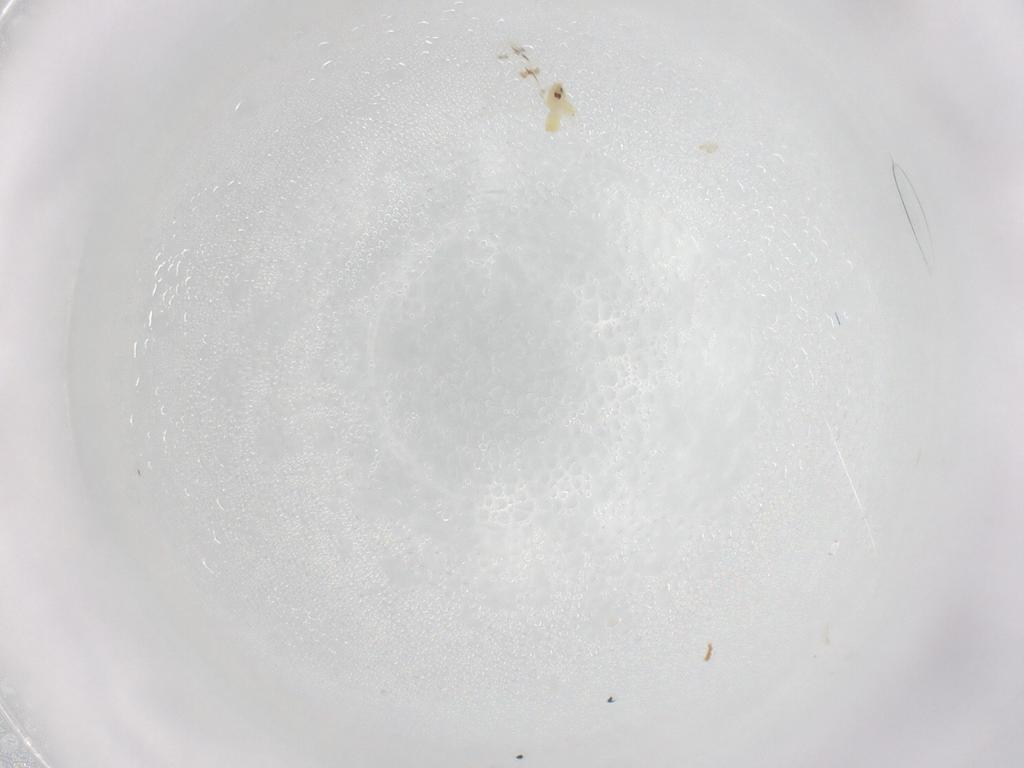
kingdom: Animalia
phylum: Arthropoda
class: Insecta
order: Hemiptera
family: Aleyrodidae
